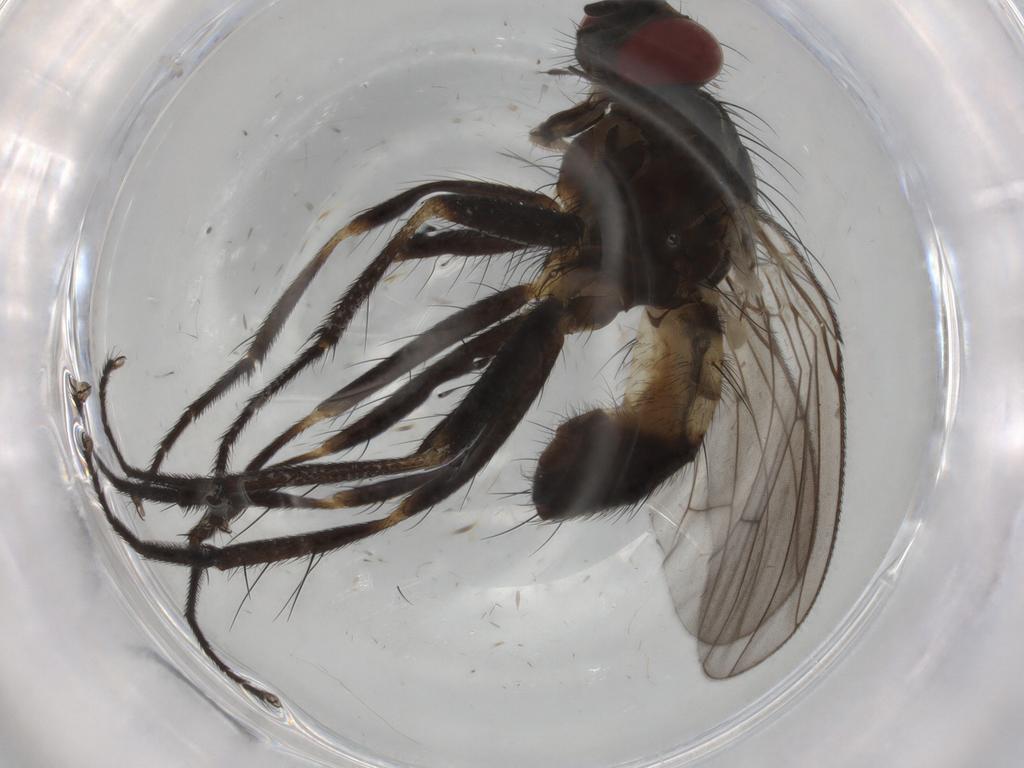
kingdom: Animalia
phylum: Arthropoda
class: Insecta
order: Diptera
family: Muscidae
